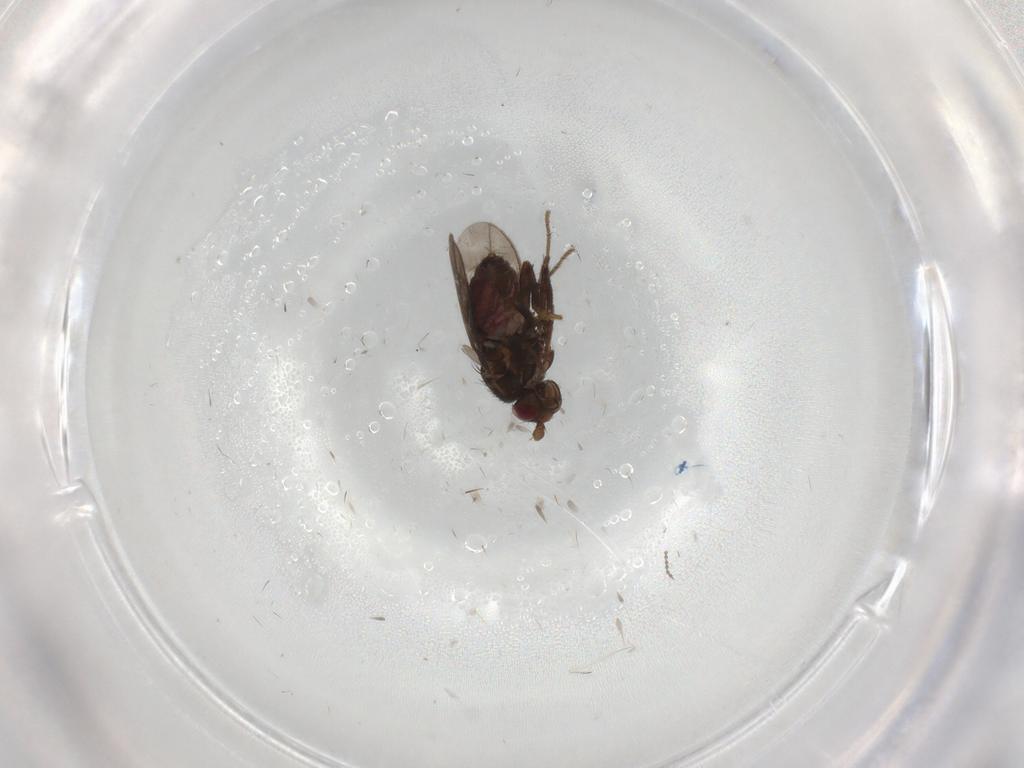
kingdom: Animalia
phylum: Arthropoda
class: Insecta
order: Diptera
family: Sphaeroceridae
